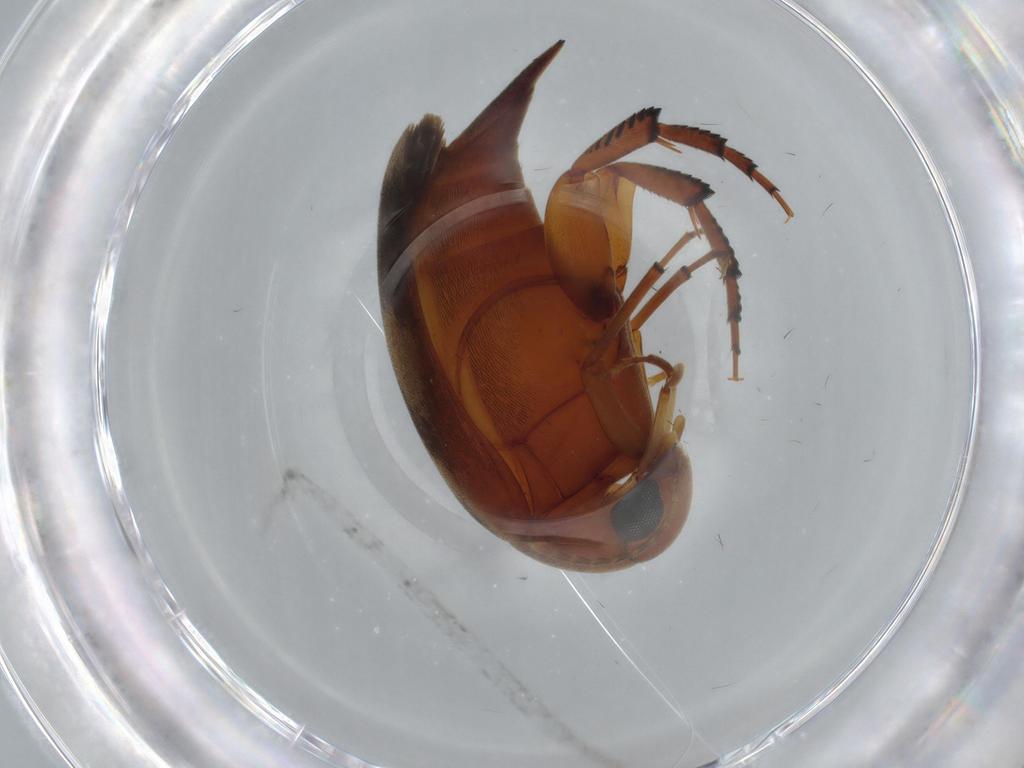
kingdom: Animalia
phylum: Arthropoda
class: Insecta
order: Coleoptera
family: Mordellidae
